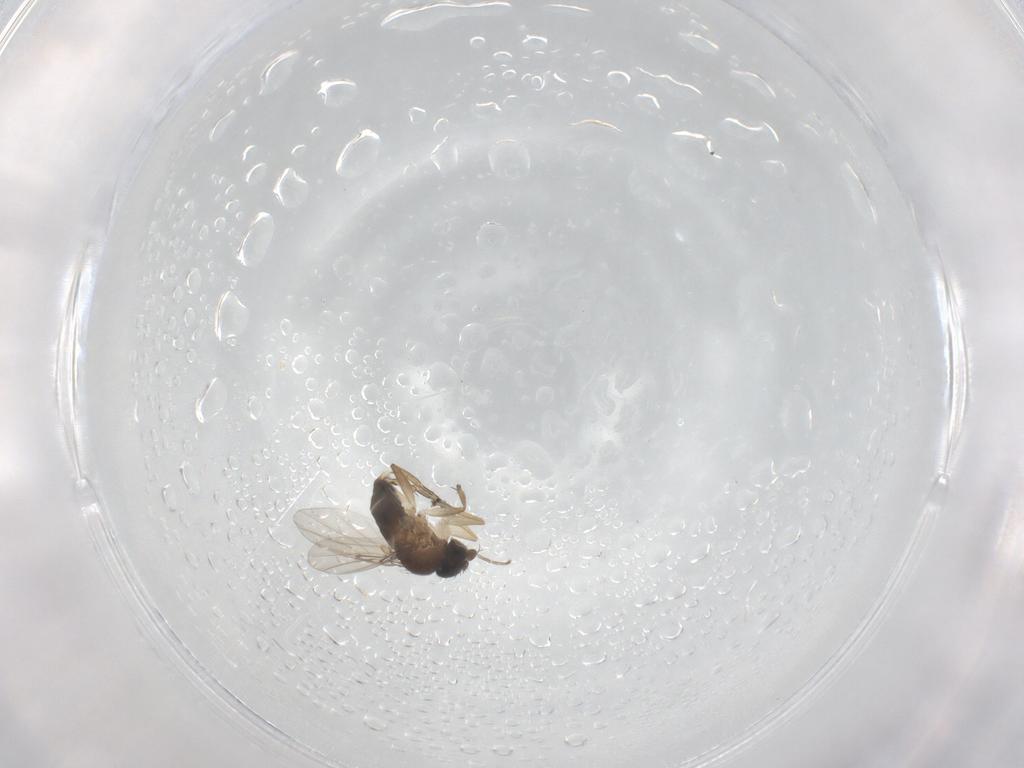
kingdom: Animalia
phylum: Arthropoda
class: Insecta
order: Diptera
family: Phoridae
